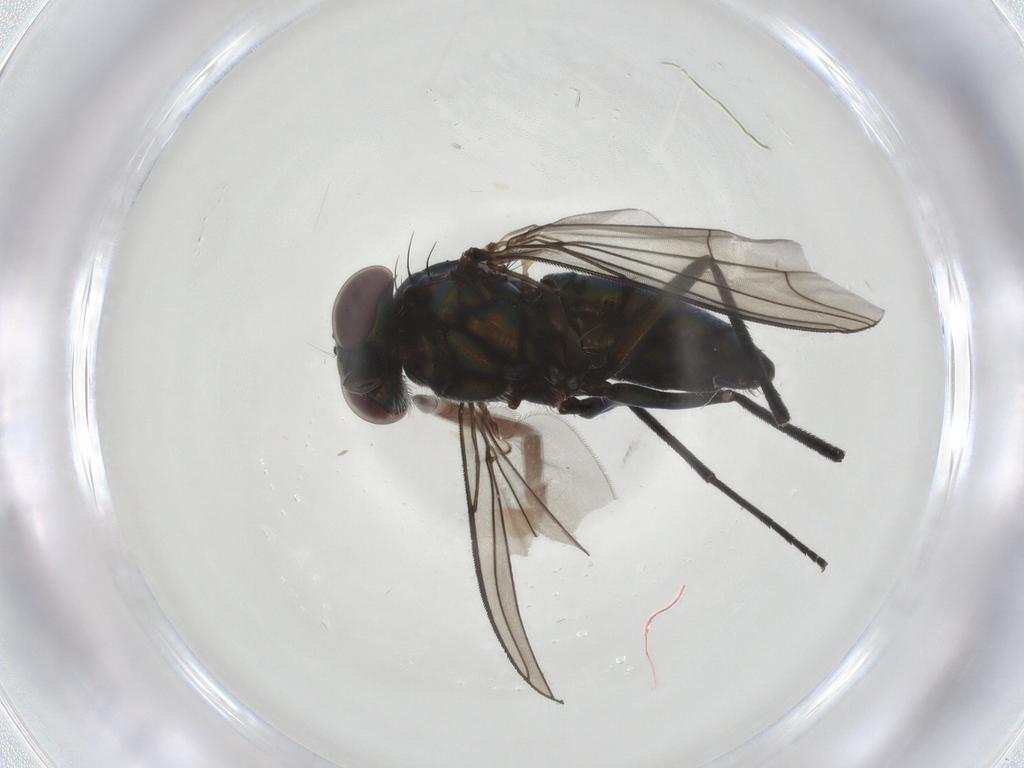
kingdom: Animalia
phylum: Arthropoda
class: Insecta
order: Diptera
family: Dolichopodidae
